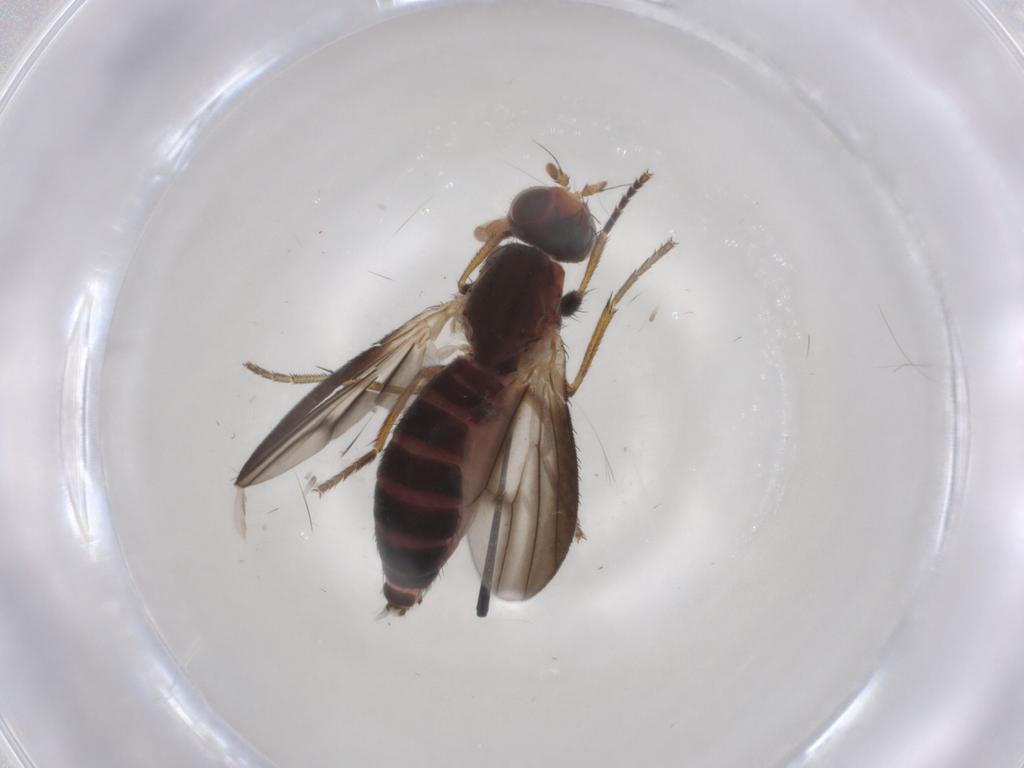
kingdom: Animalia
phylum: Arthropoda
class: Insecta
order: Diptera
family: Heleomyzidae
